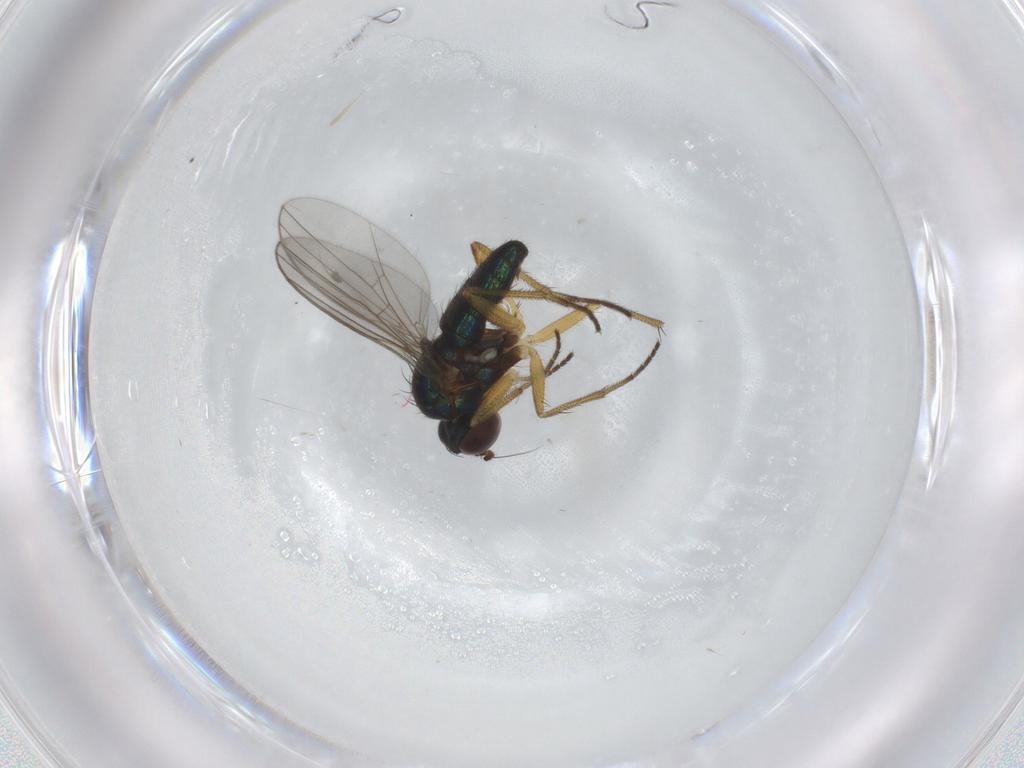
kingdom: Animalia
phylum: Arthropoda
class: Insecta
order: Diptera
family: Dolichopodidae
